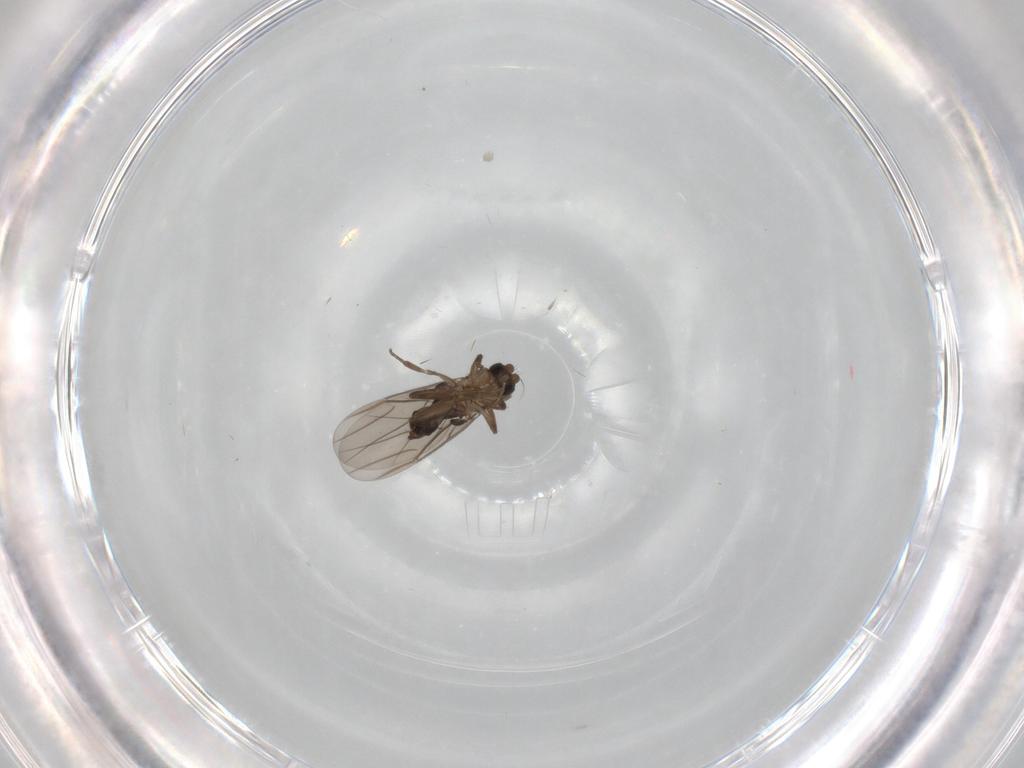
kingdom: Animalia
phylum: Arthropoda
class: Insecta
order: Diptera
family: Phoridae
